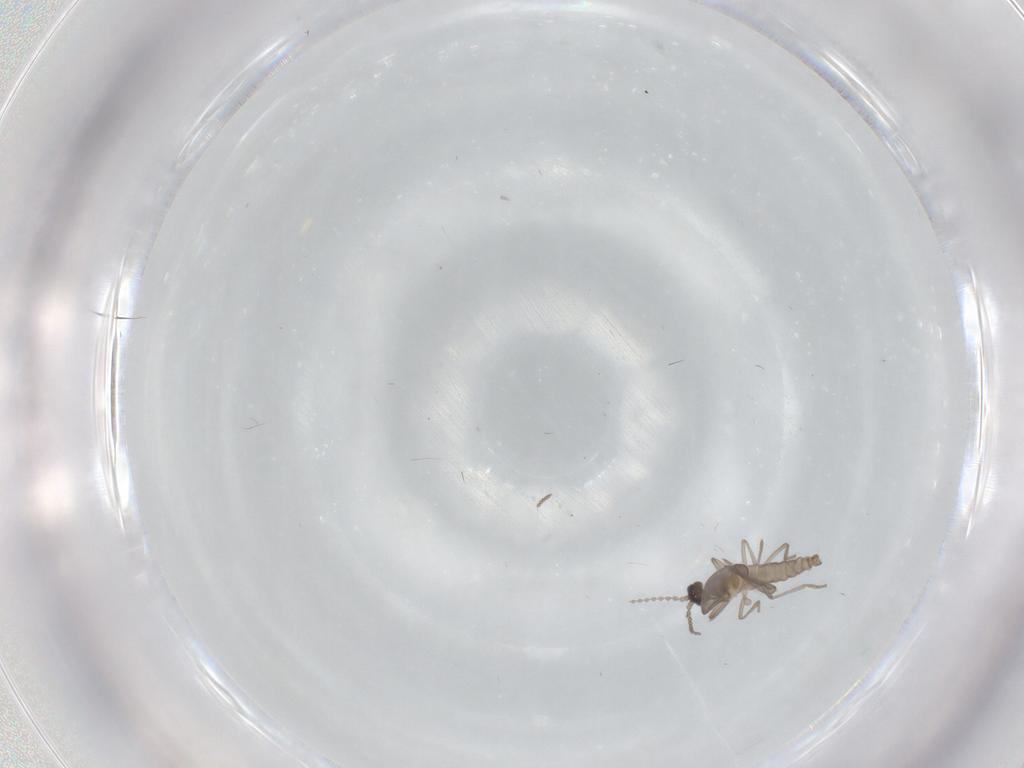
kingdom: Animalia
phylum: Arthropoda
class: Insecta
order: Diptera
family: Cecidomyiidae
